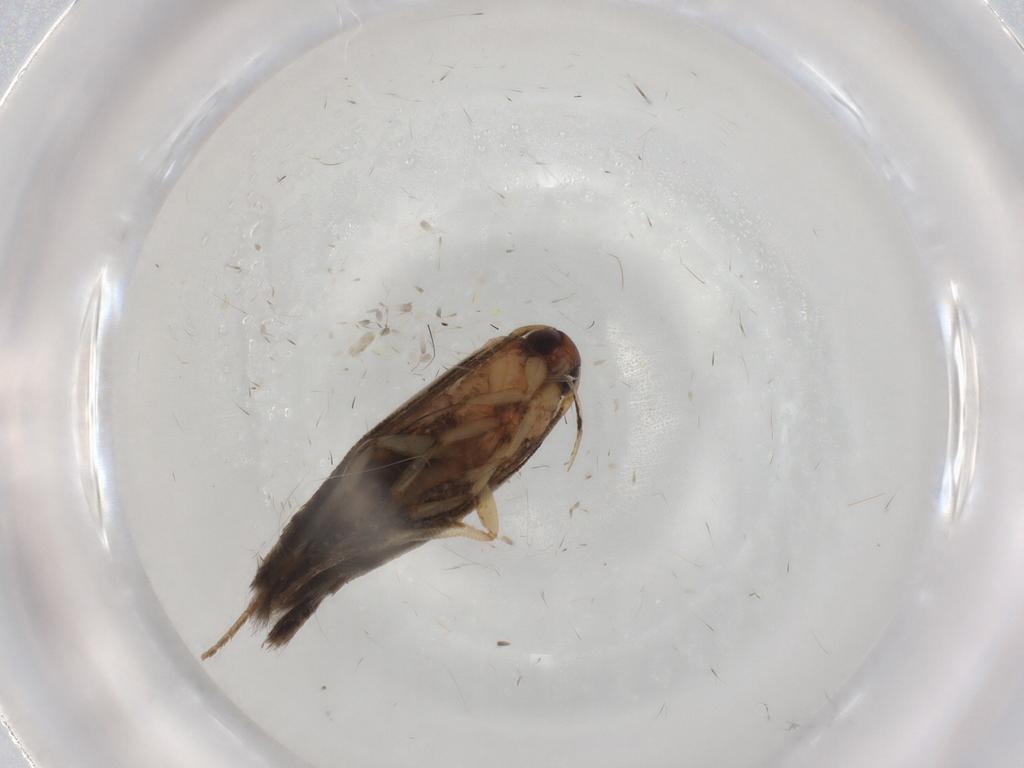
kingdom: Animalia
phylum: Arthropoda
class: Insecta
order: Lepidoptera
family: Cosmopterigidae
